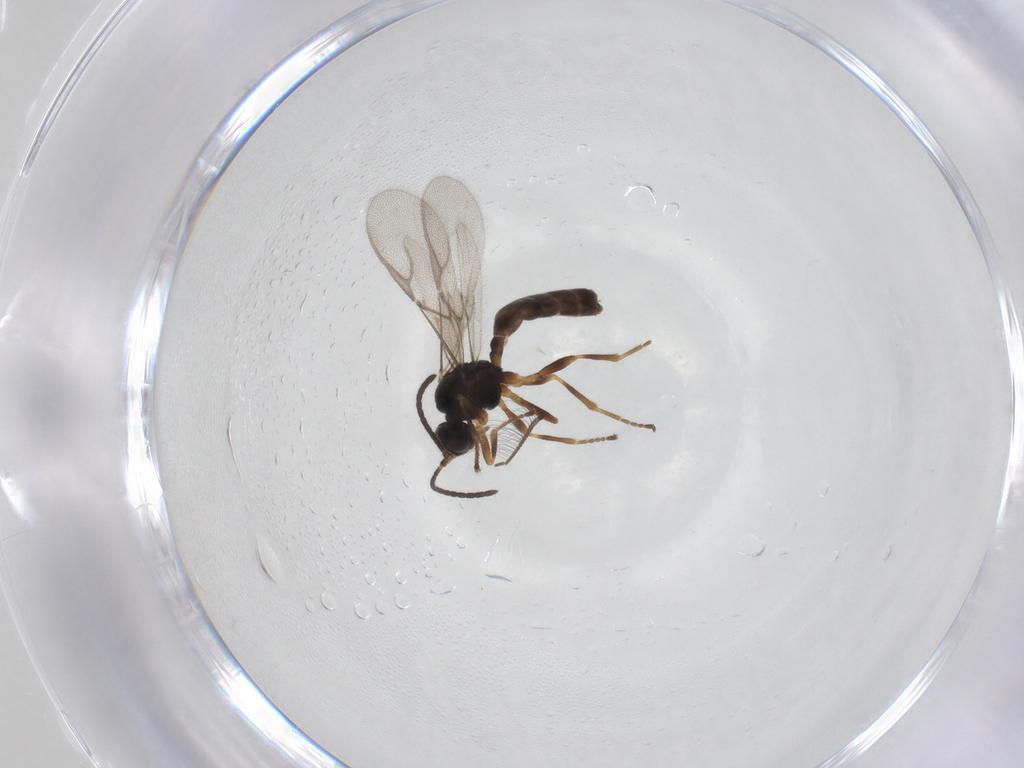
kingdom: Animalia
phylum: Arthropoda
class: Insecta
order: Hymenoptera
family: Braconidae
